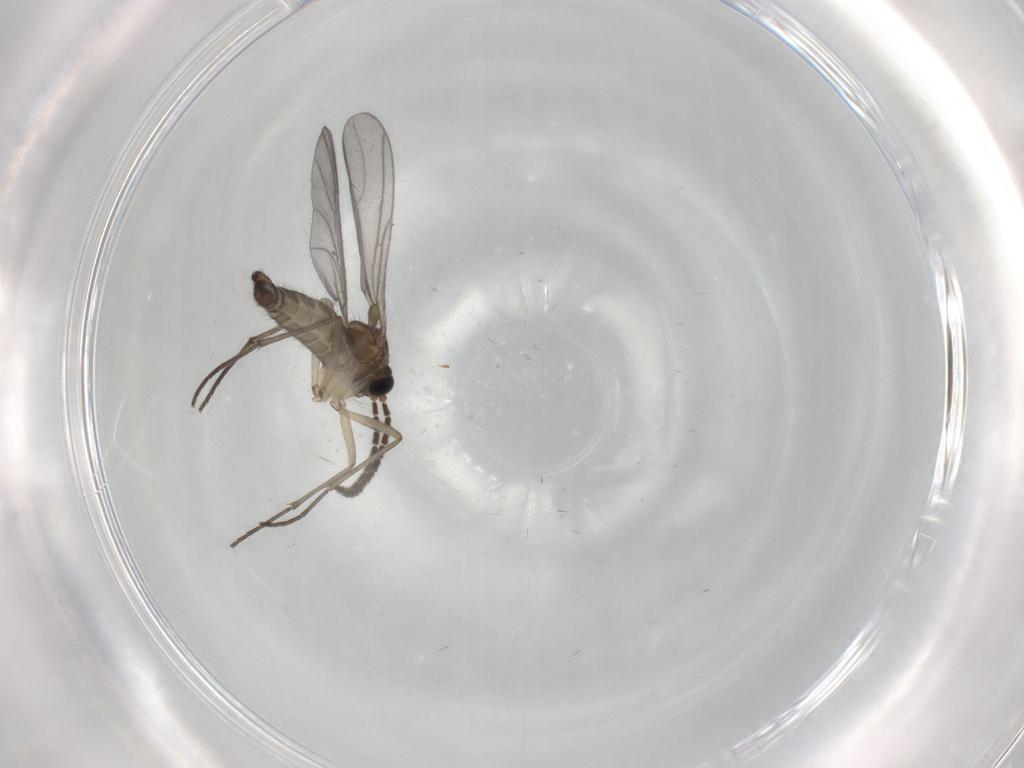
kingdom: Animalia
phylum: Arthropoda
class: Insecta
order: Diptera
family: Sciaridae
